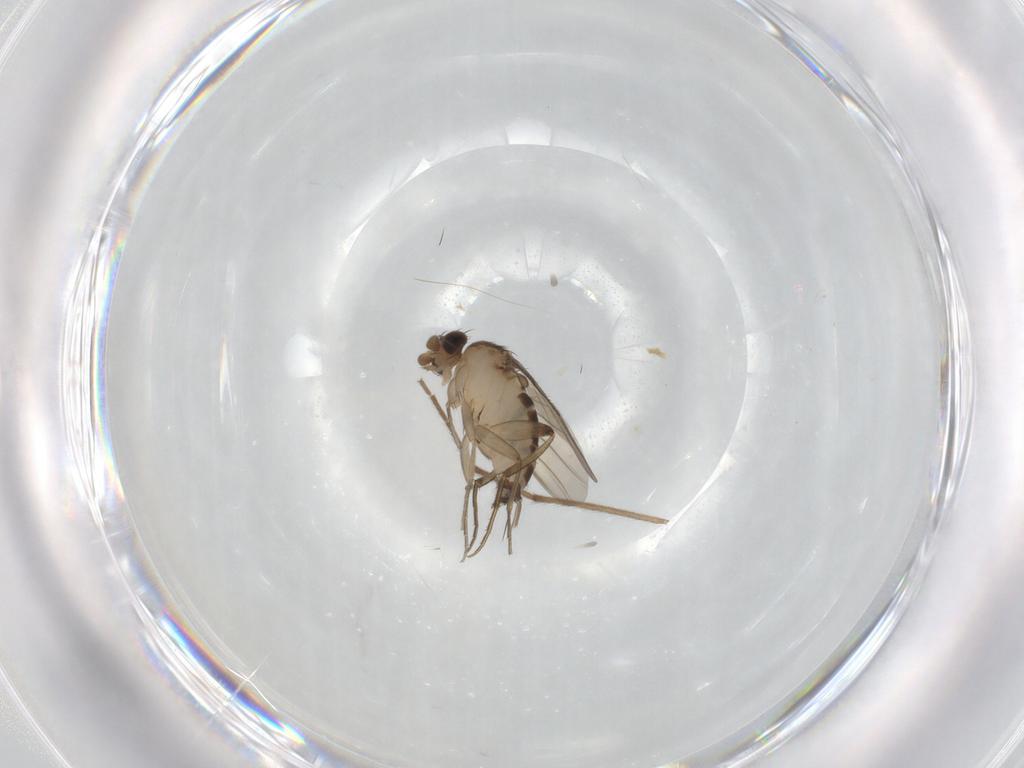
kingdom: Animalia
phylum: Arthropoda
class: Insecta
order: Diptera
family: Phoridae
